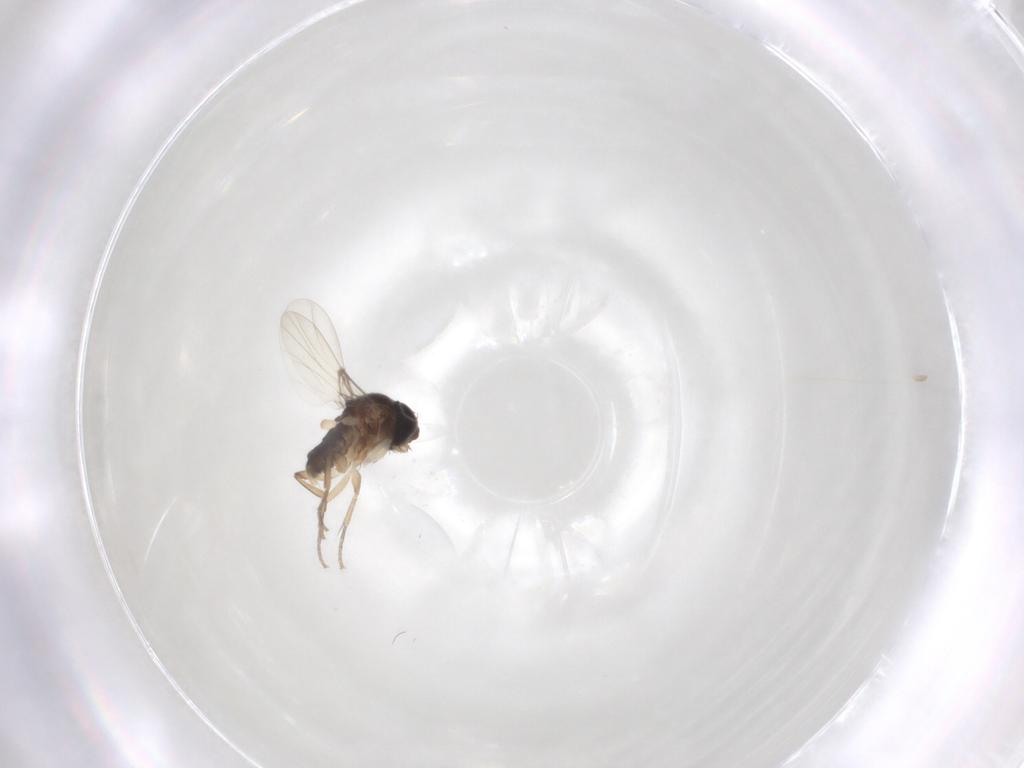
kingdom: Animalia
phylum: Arthropoda
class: Insecta
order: Diptera
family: Phoridae
